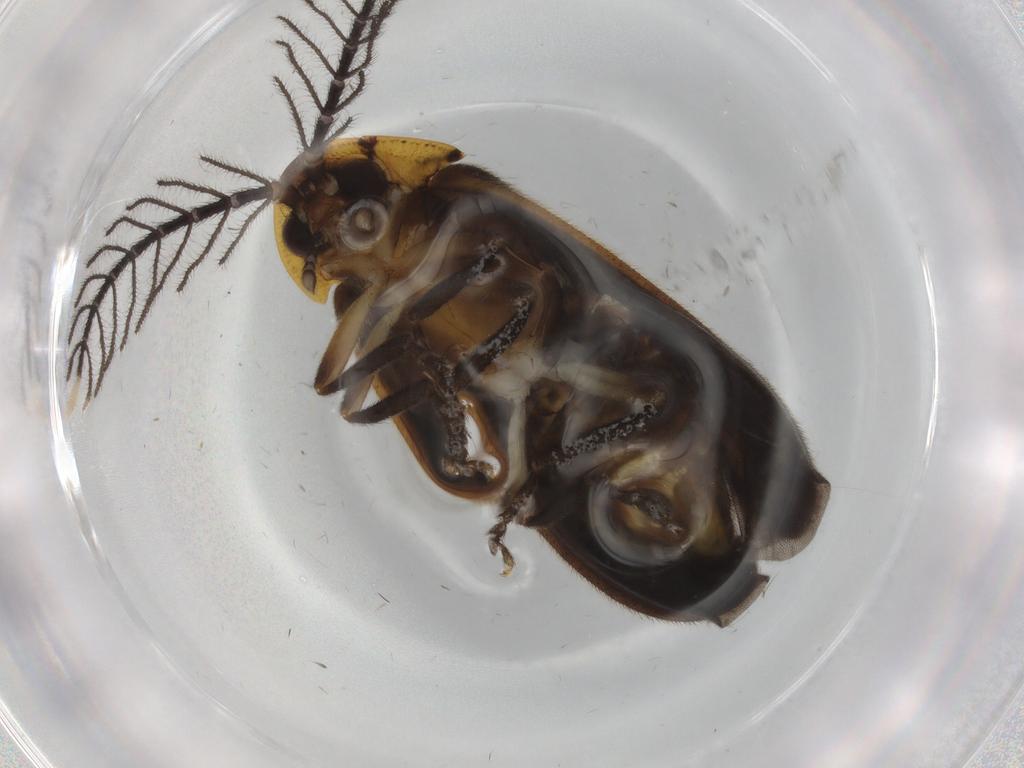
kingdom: Animalia
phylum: Arthropoda
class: Insecta
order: Coleoptera
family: Lampyridae
